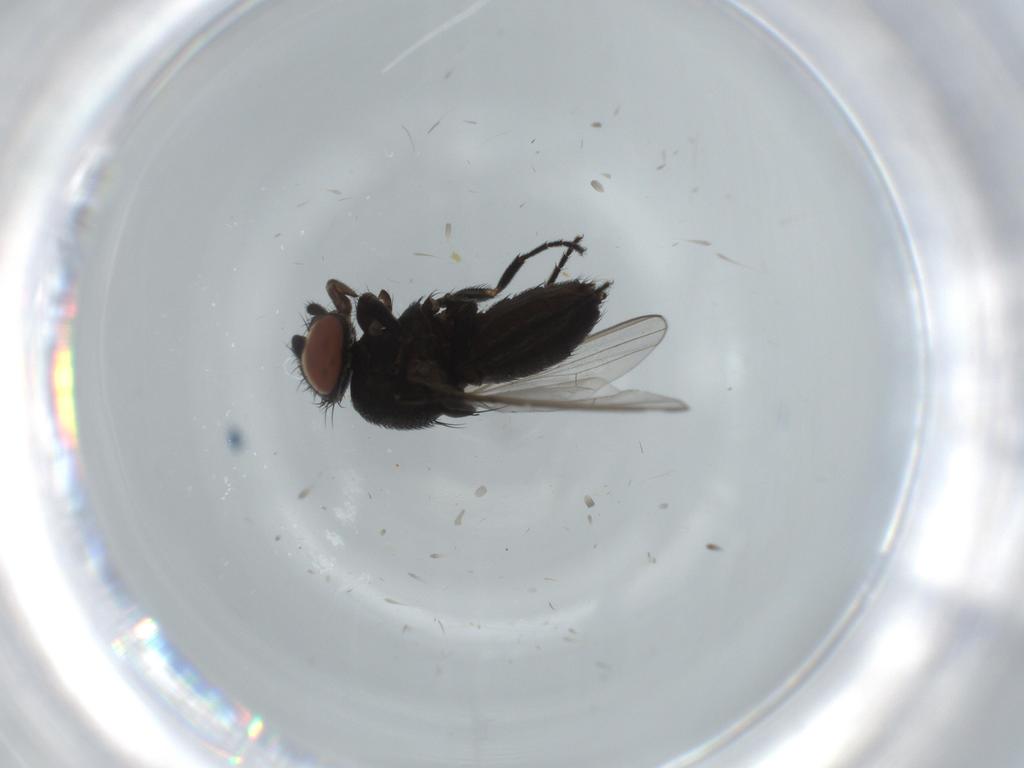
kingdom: Animalia
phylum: Arthropoda
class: Insecta
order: Diptera
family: Milichiidae
